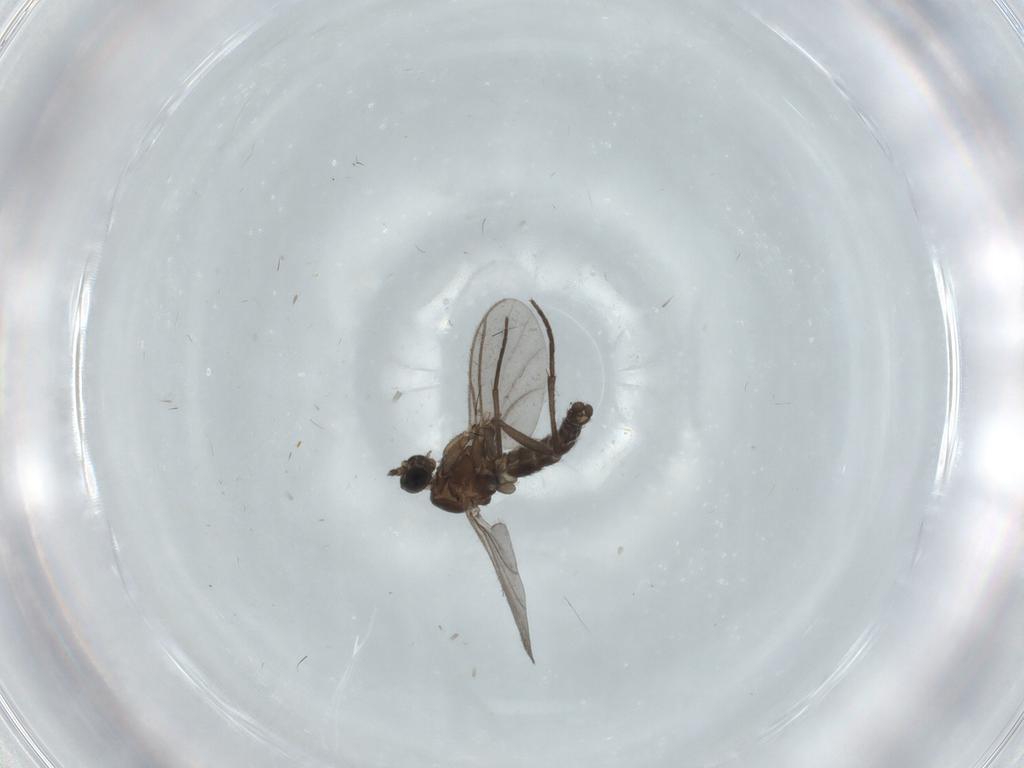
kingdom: Animalia
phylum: Arthropoda
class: Insecta
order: Diptera
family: Sciaridae
